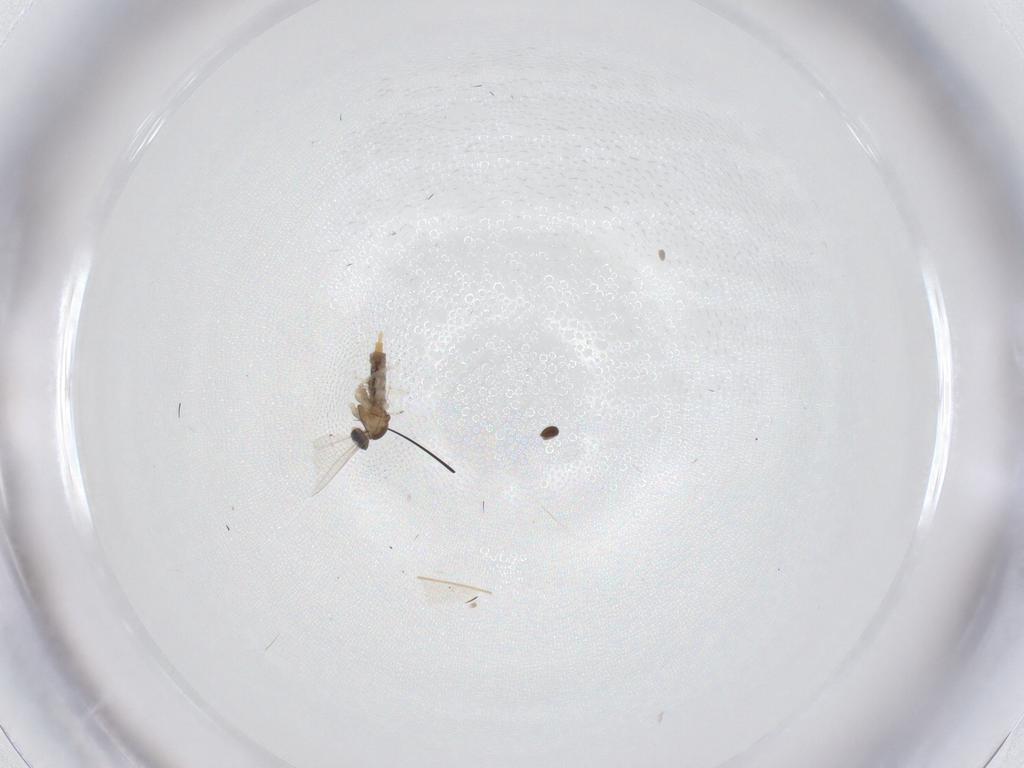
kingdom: Animalia
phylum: Arthropoda
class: Insecta
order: Diptera
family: Cecidomyiidae
